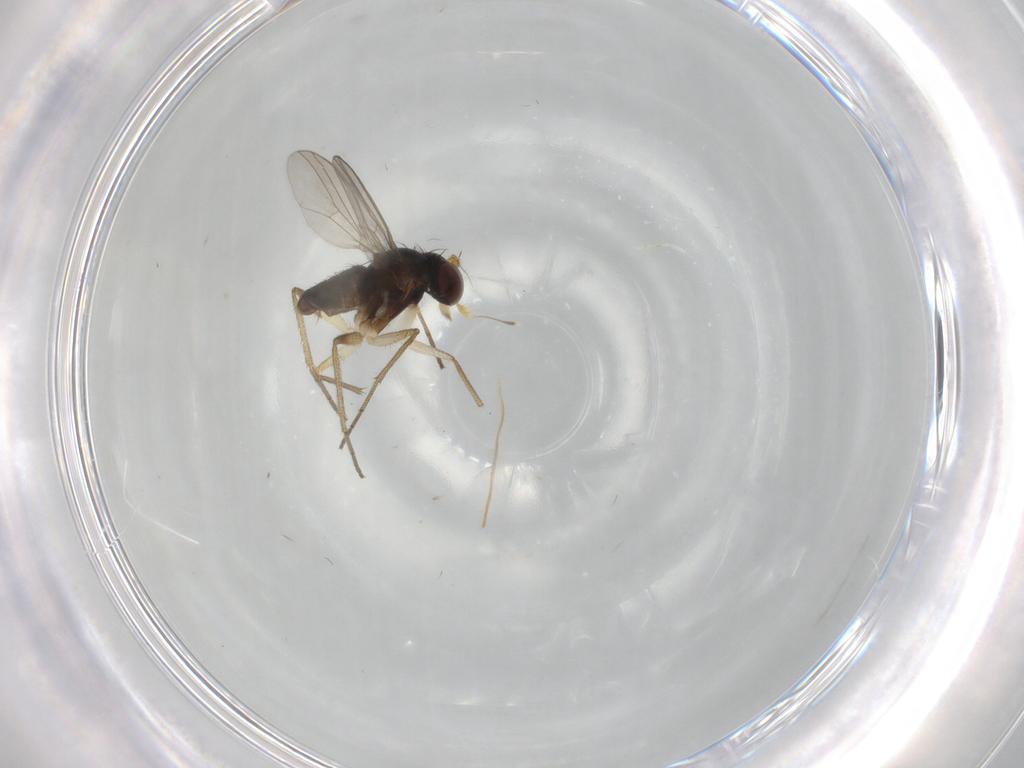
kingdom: Animalia
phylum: Arthropoda
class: Insecta
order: Diptera
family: Dolichopodidae
